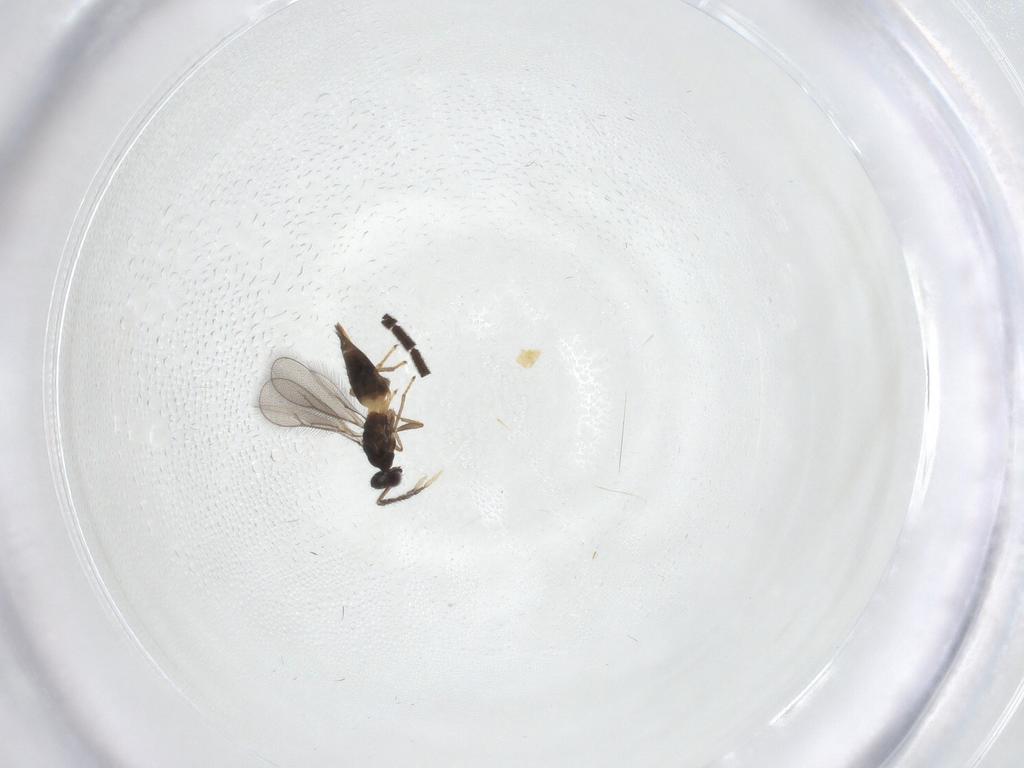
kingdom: Animalia
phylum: Arthropoda
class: Insecta
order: Hymenoptera
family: Eulophidae
